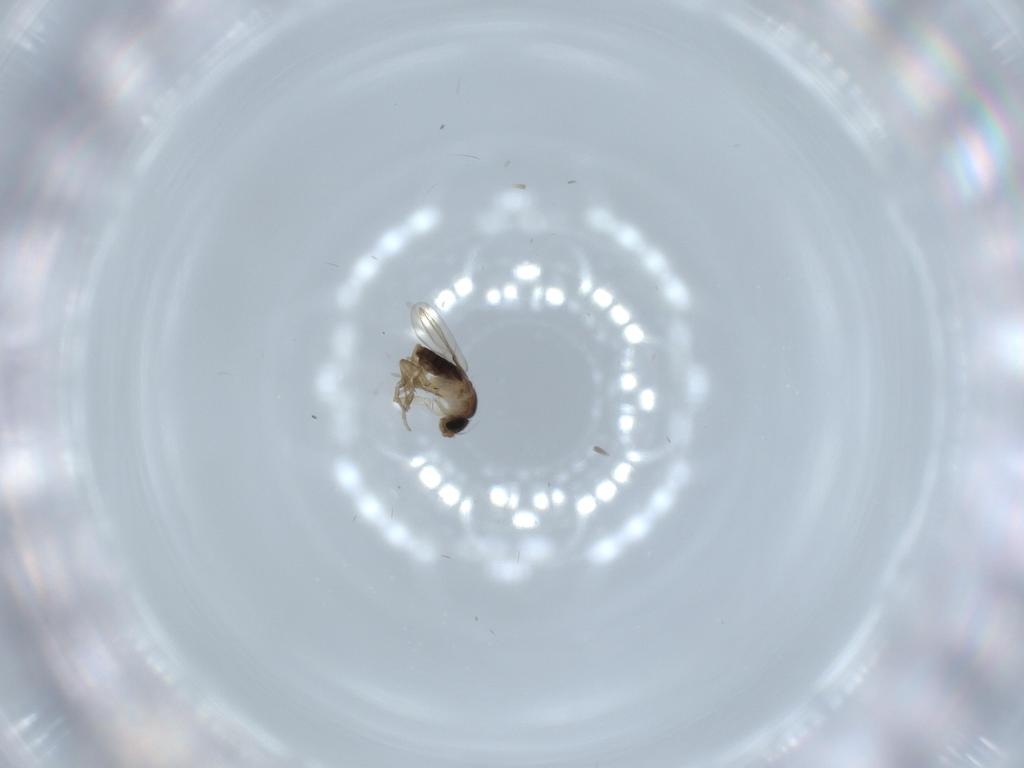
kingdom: Animalia
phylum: Arthropoda
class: Insecta
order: Diptera
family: Phoridae
